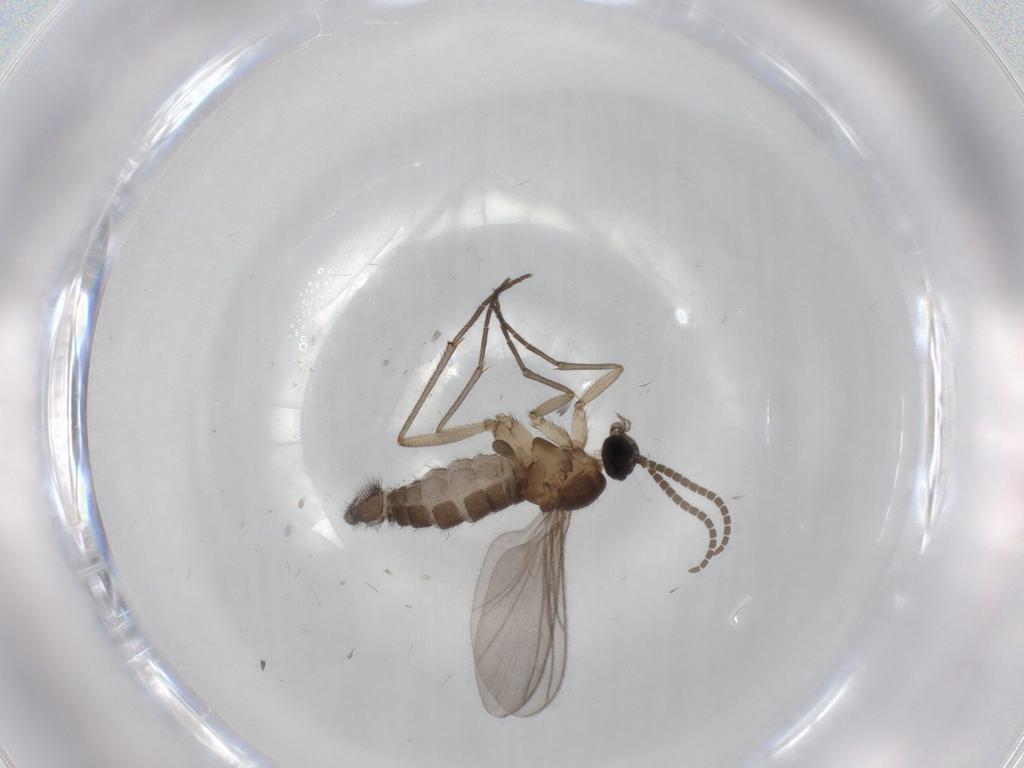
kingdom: Animalia
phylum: Arthropoda
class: Insecta
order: Diptera
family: Sciaridae
